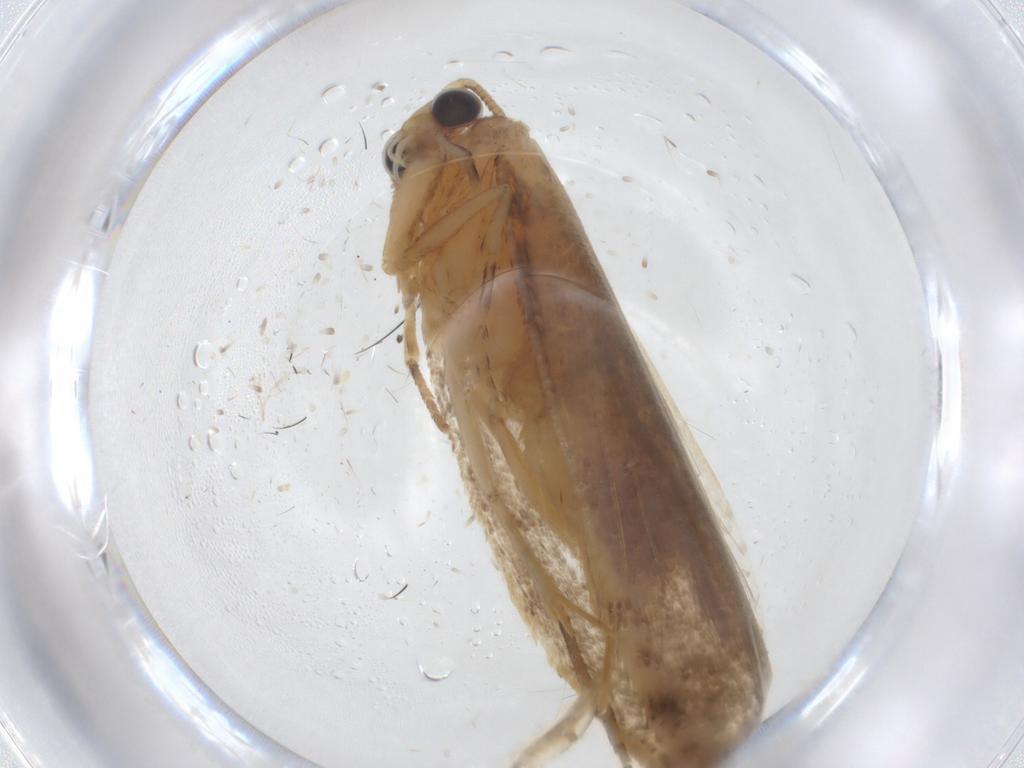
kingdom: Animalia
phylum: Arthropoda
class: Insecta
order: Lepidoptera
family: Tineidae
